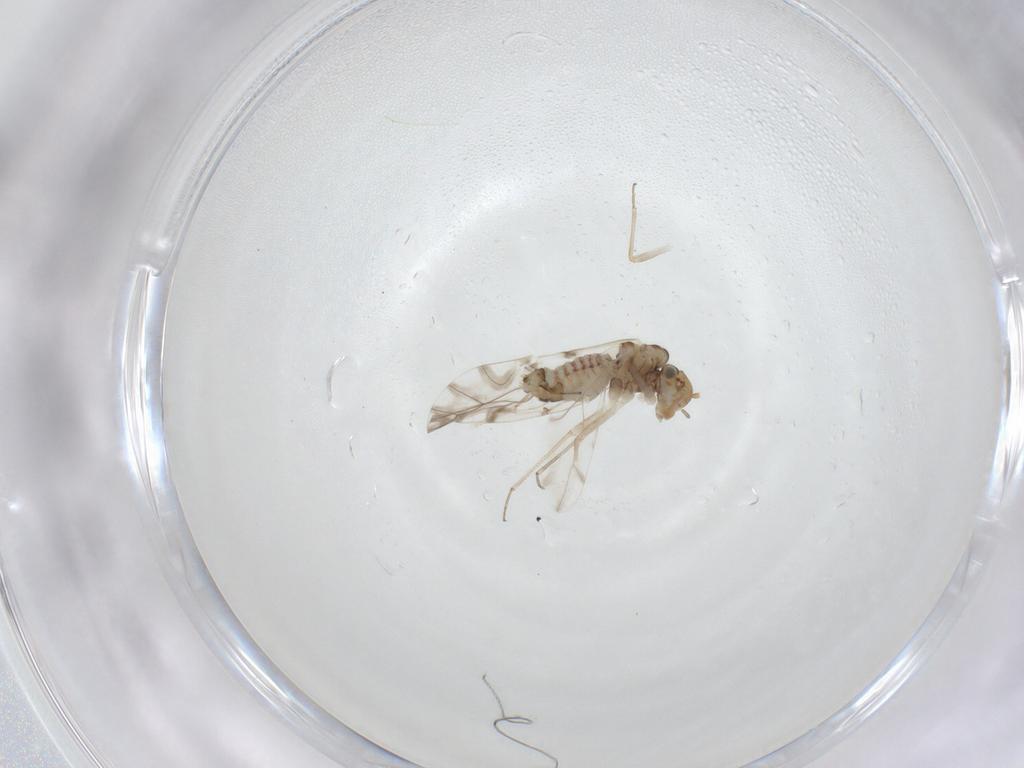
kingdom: Animalia
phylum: Arthropoda
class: Insecta
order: Psocodea
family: Lachesillidae
